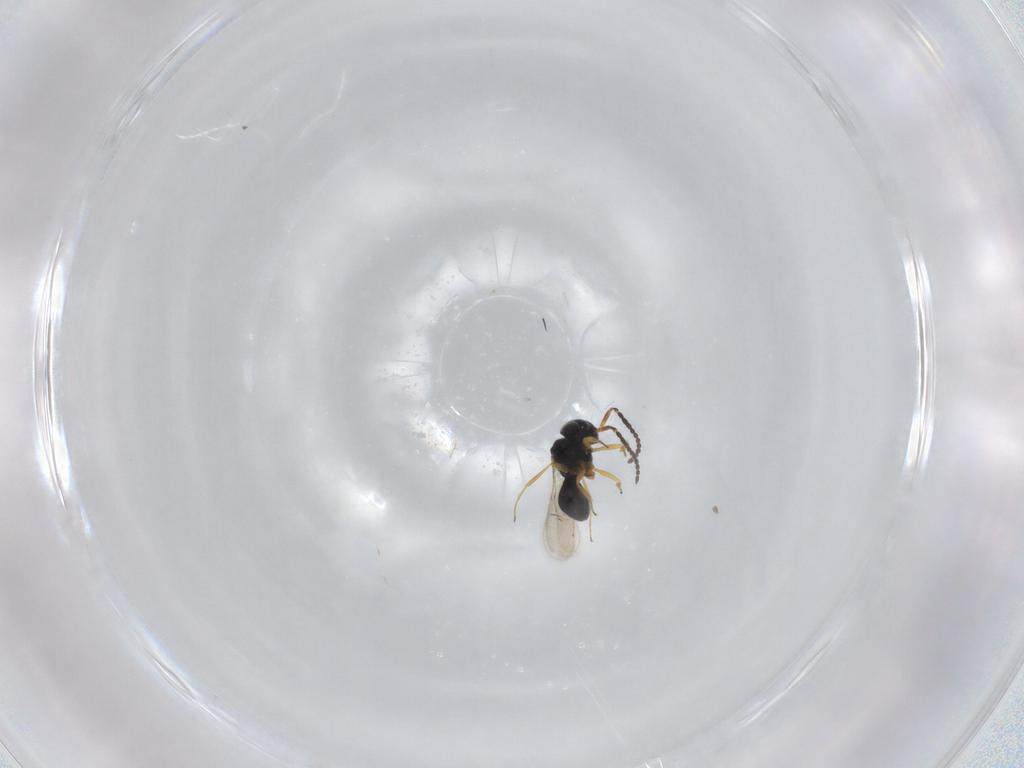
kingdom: Animalia
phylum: Arthropoda
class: Insecta
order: Hymenoptera
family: Scelionidae
